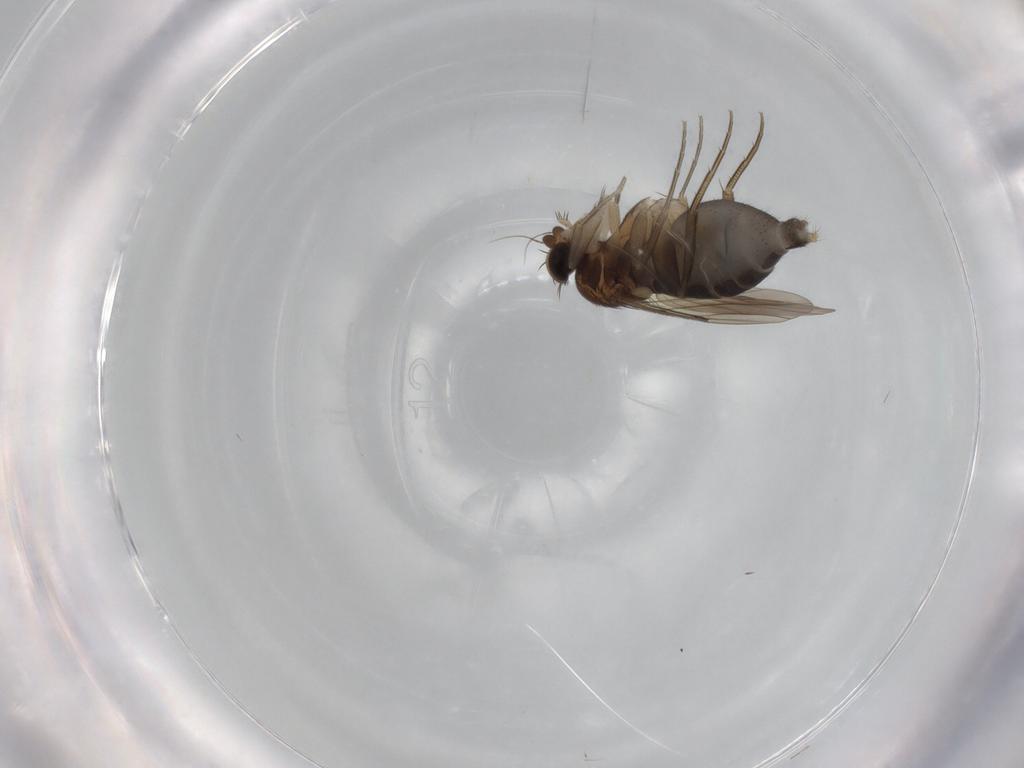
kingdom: Animalia
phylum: Arthropoda
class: Insecta
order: Diptera
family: Phoridae
